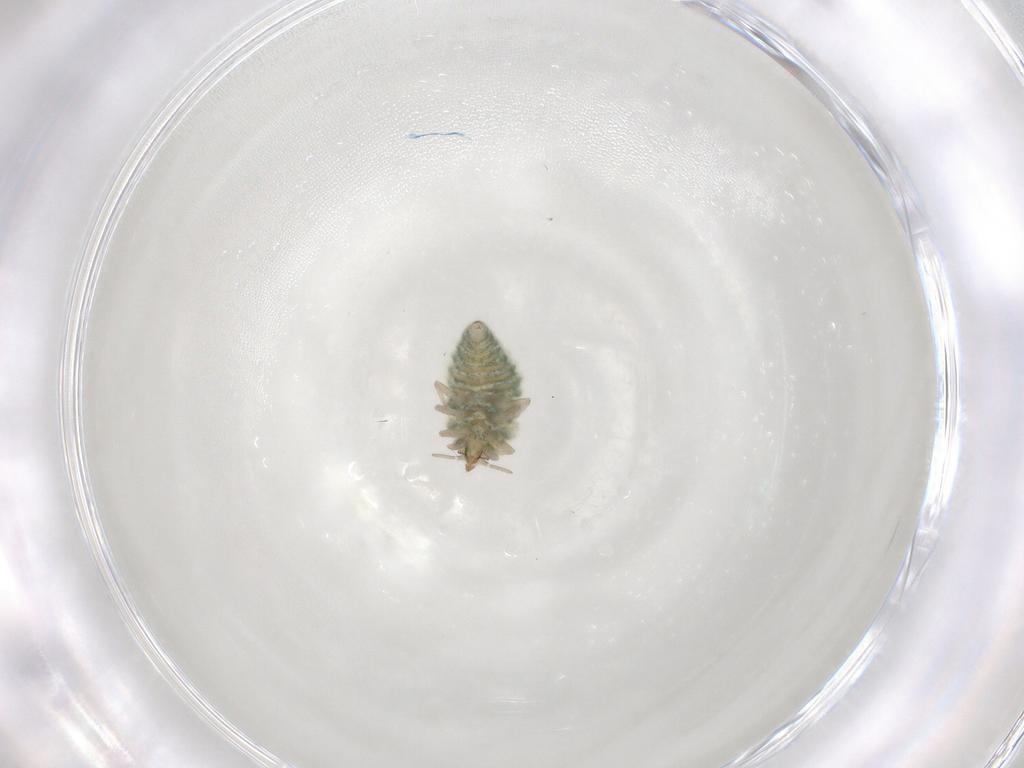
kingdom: Animalia
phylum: Arthropoda
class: Insecta
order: Neuroptera
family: Coniopterygidae
